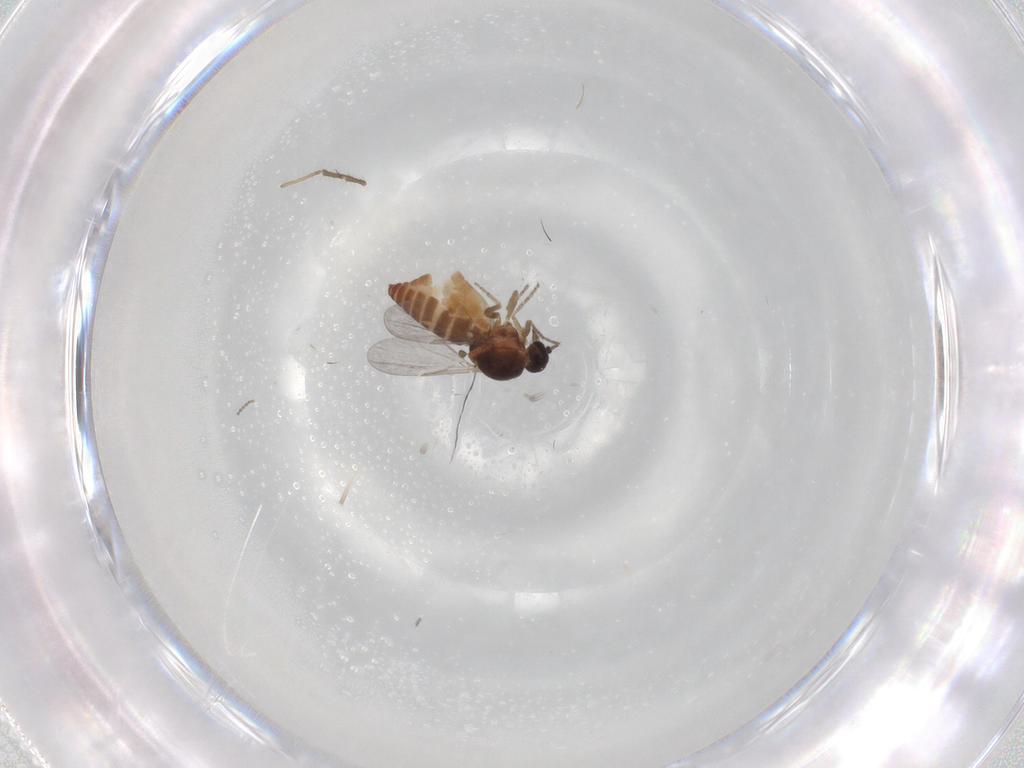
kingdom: Animalia
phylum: Arthropoda
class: Insecta
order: Diptera
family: Ceratopogonidae
